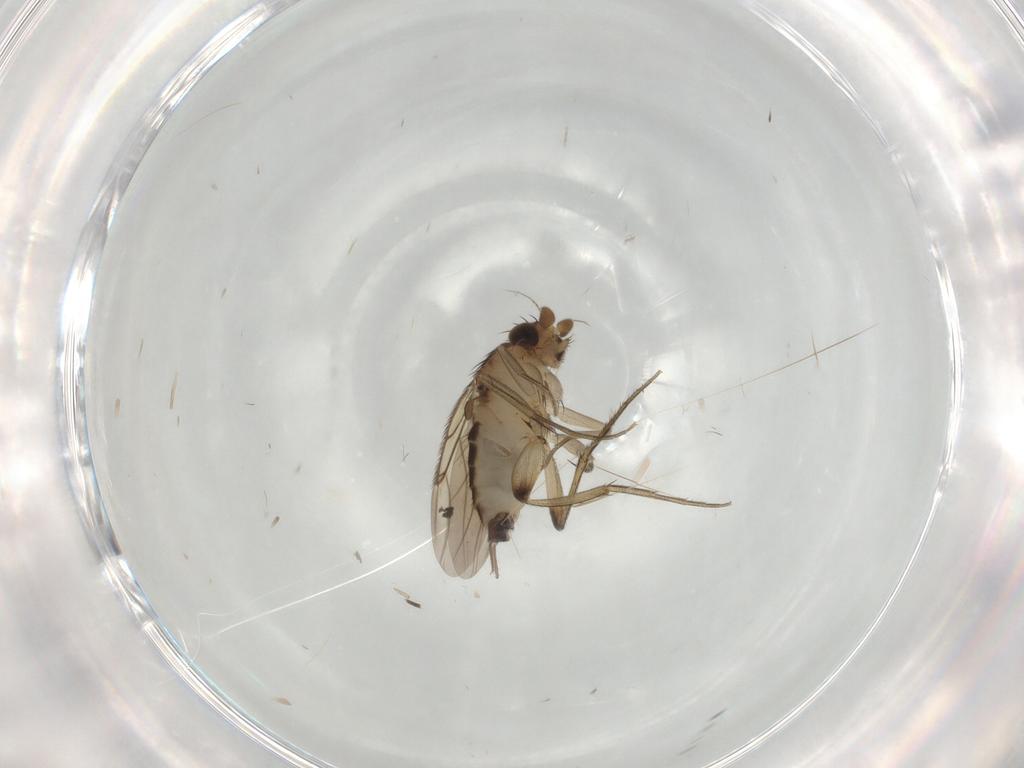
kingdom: Animalia
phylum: Arthropoda
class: Insecta
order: Diptera
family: Phoridae
